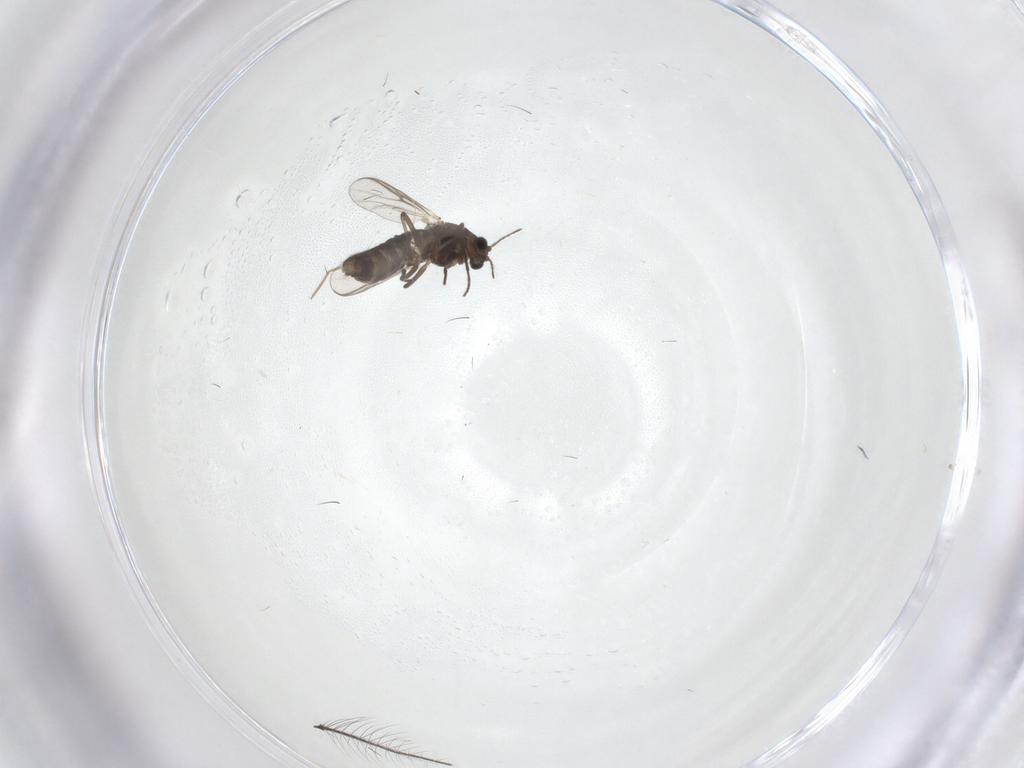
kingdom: Animalia
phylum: Arthropoda
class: Insecta
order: Diptera
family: Chironomidae
